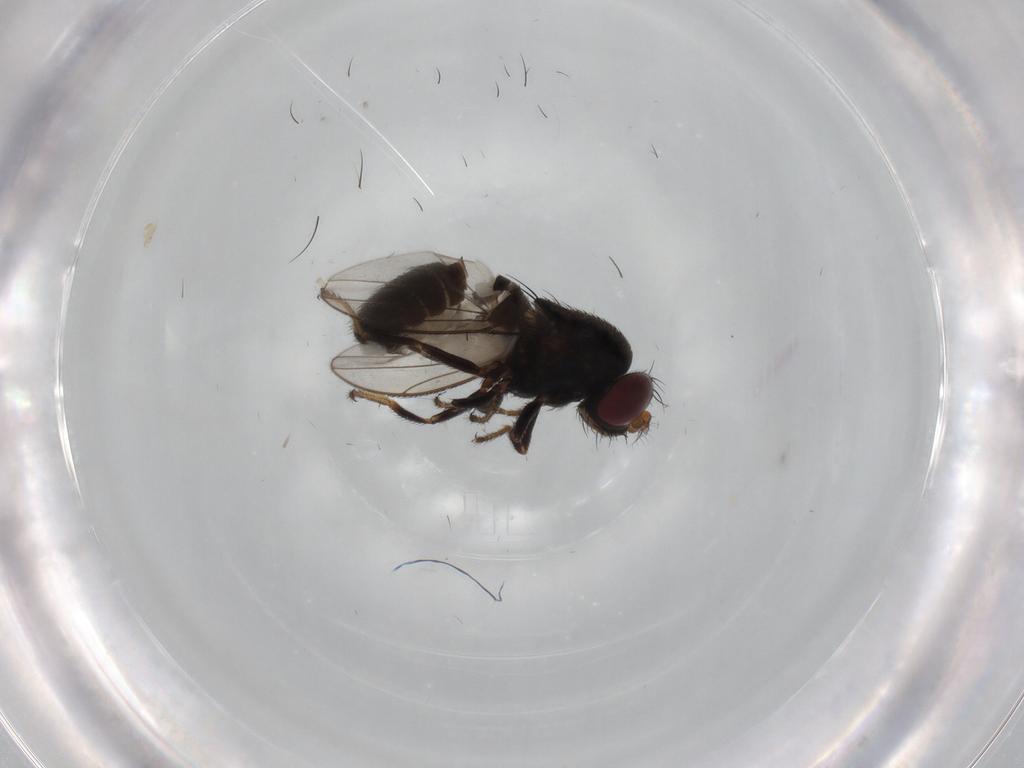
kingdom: Animalia
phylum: Arthropoda
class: Insecta
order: Diptera
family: Ephydridae
